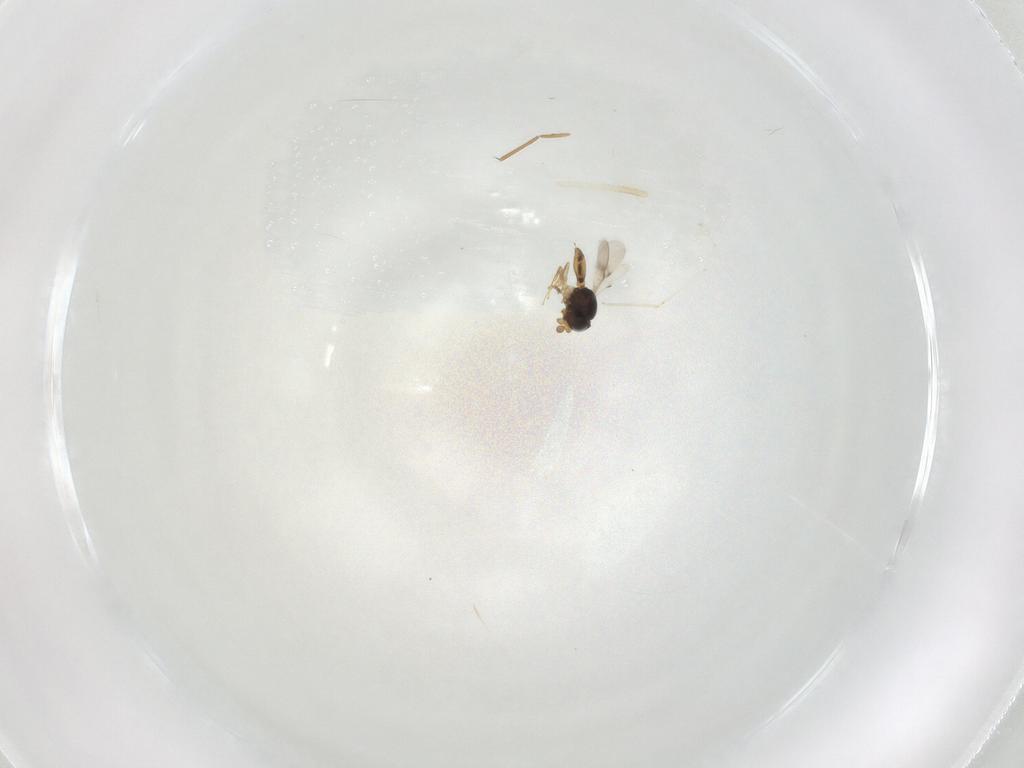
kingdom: Animalia
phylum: Arthropoda
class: Insecta
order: Hymenoptera
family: Scelionidae
